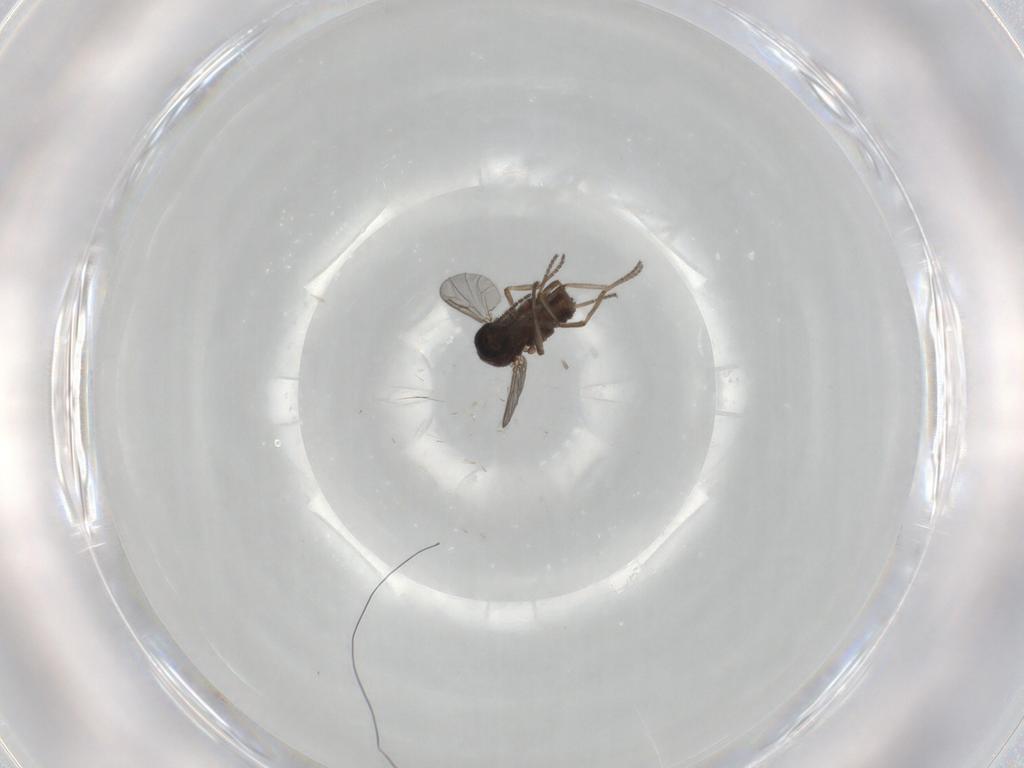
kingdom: Animalia
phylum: Arthropoda
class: Insecta
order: Diptera
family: Ceratopogonidae
